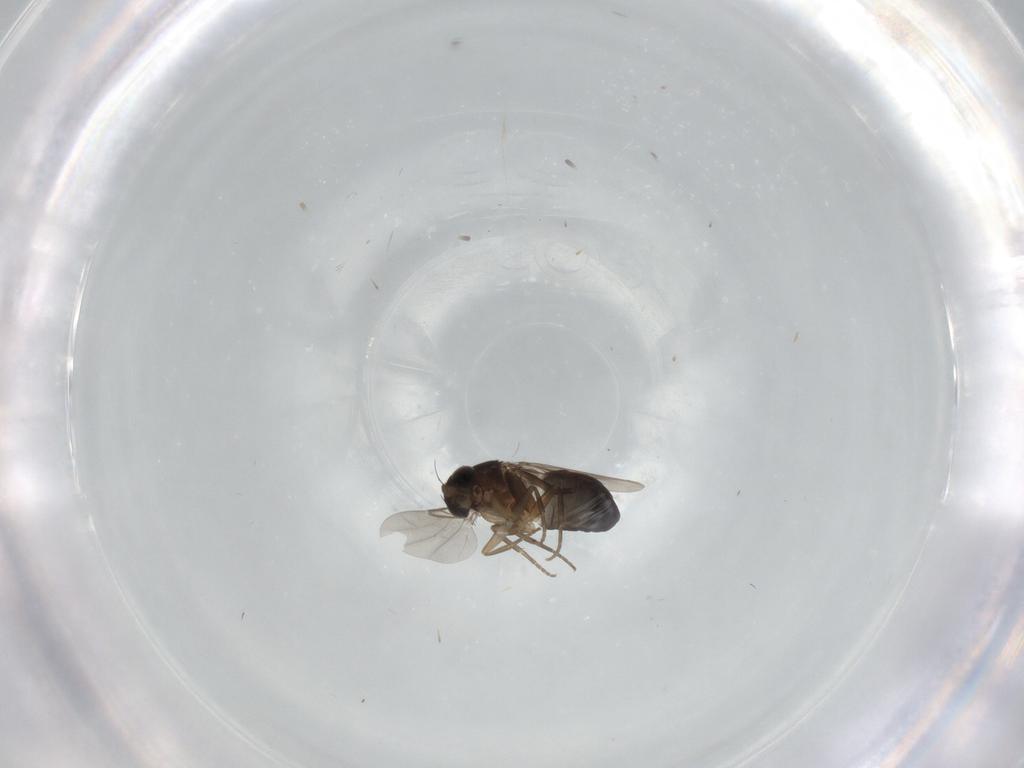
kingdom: Animalia
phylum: Arthropoda
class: Insecta
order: Diptera
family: Phoridae
